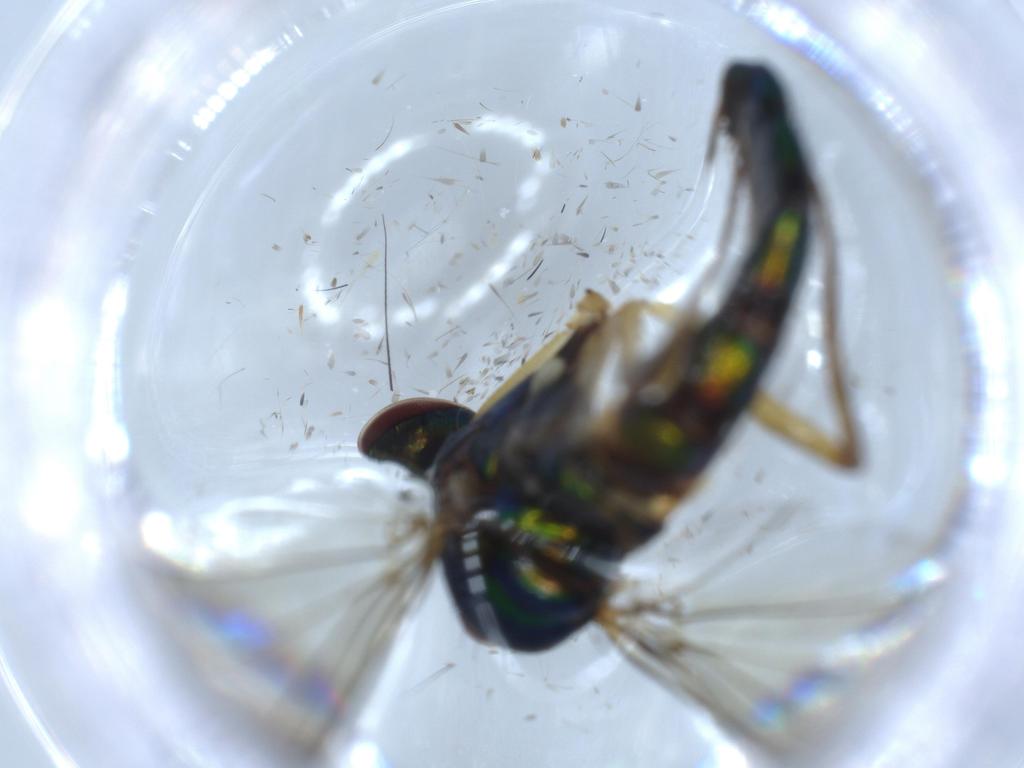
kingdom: Animalia
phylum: Arthropoda
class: Insecta
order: Diptera
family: Dolichopodidae
